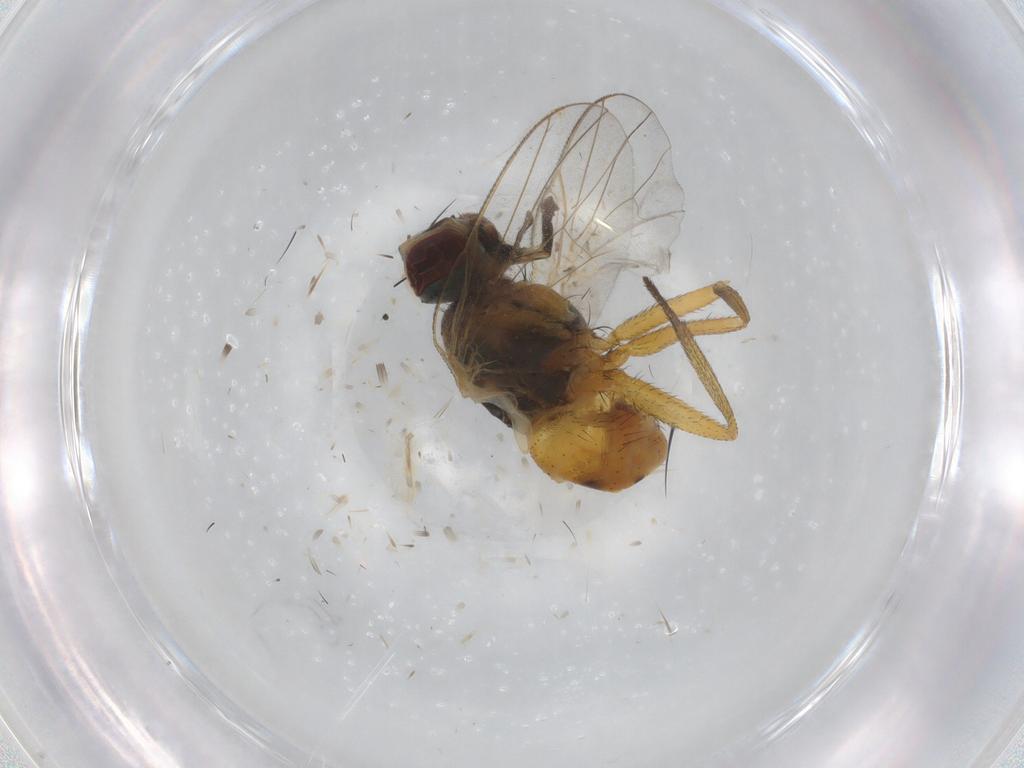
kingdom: Animalia
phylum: Arthropoda
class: Insecta
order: Diptera
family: Muscidae
